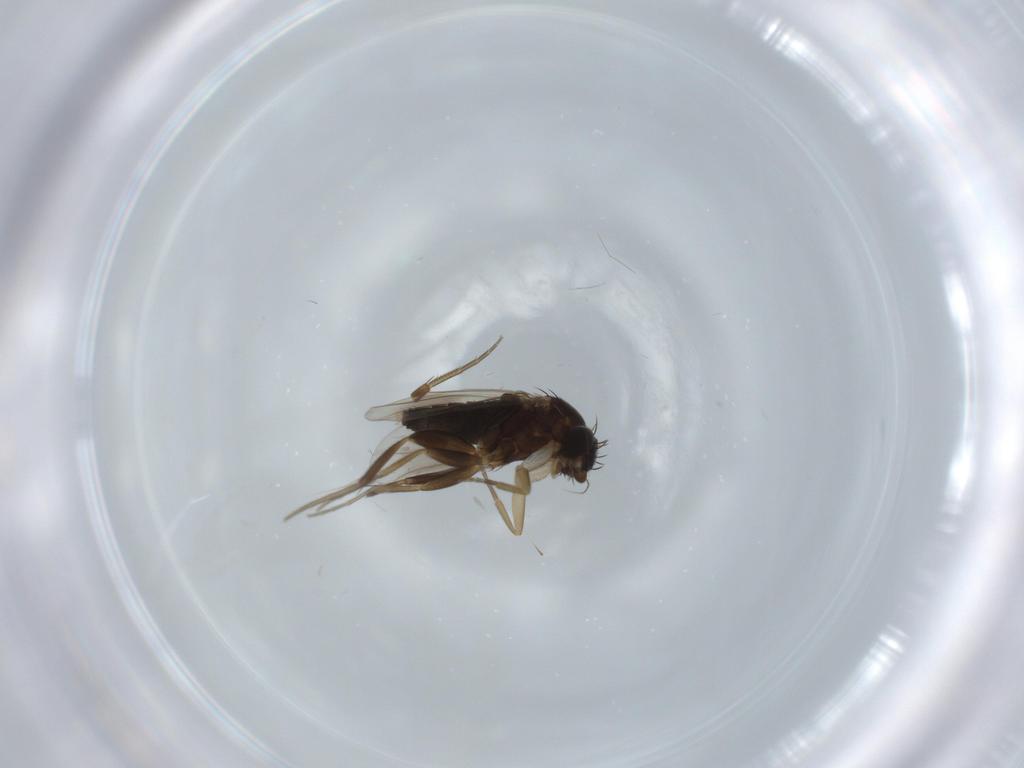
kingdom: Animalia
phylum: Arthropoda
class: Insecta
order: Diptera
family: Phoridae
